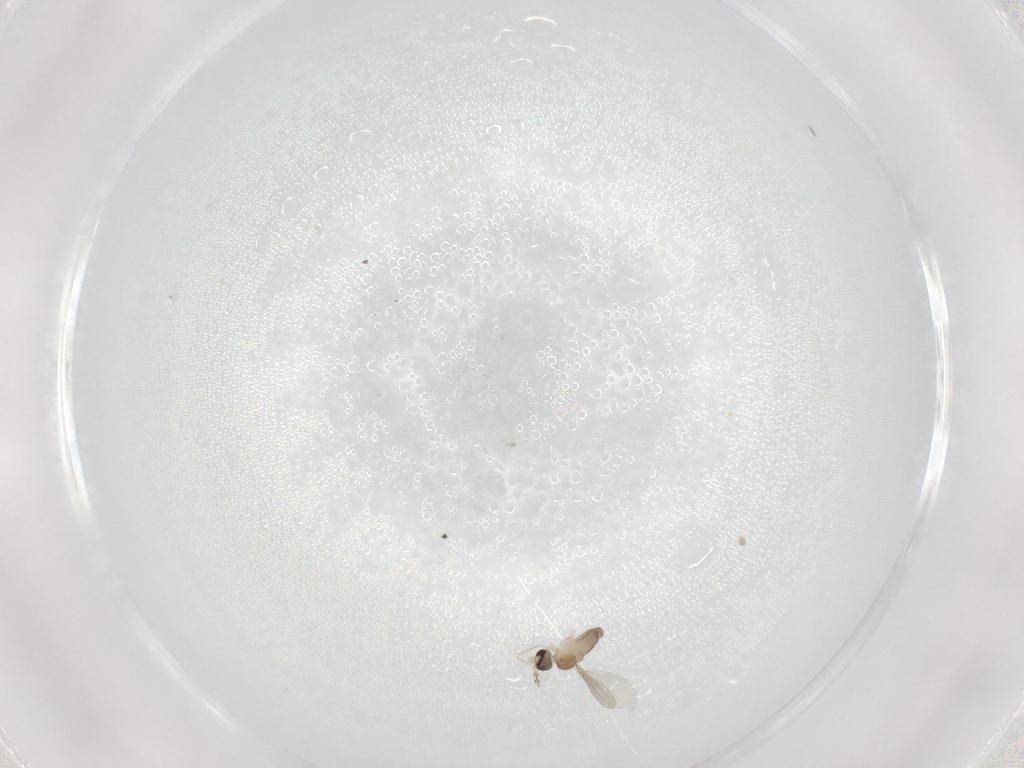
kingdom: Animalia
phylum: Arthropoda
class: Insecta
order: Diptera
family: Cecidomyiidae
